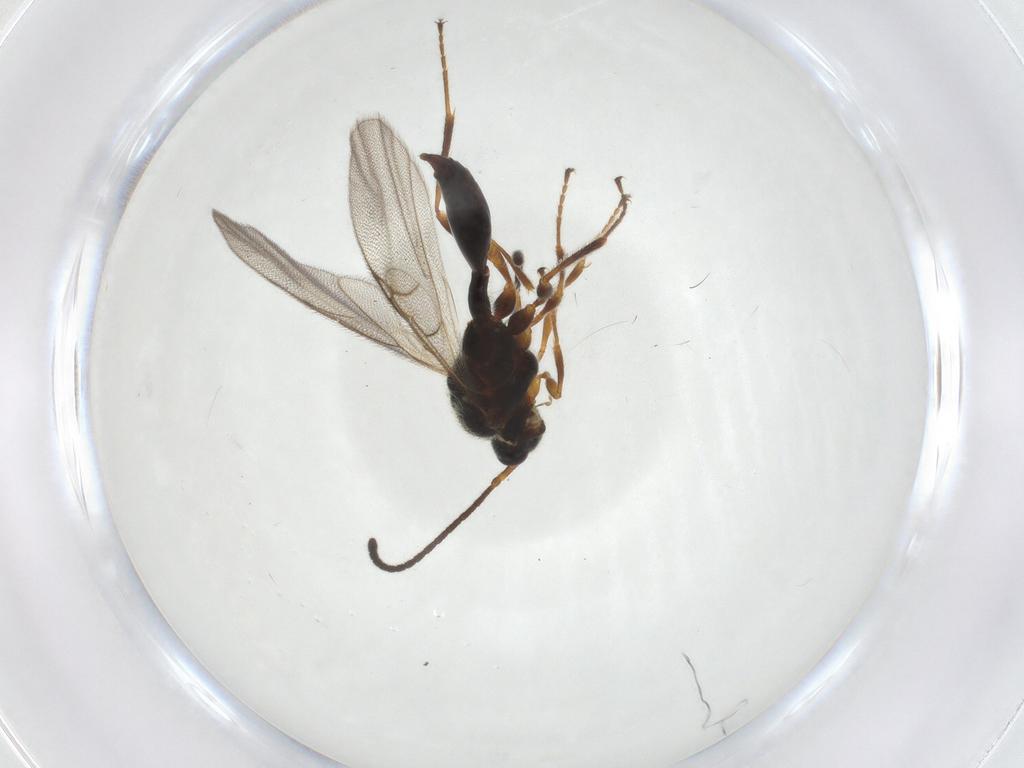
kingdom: Animalia
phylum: Arthropoda
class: Insecta
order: Hymenoptera
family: Diapriidae
